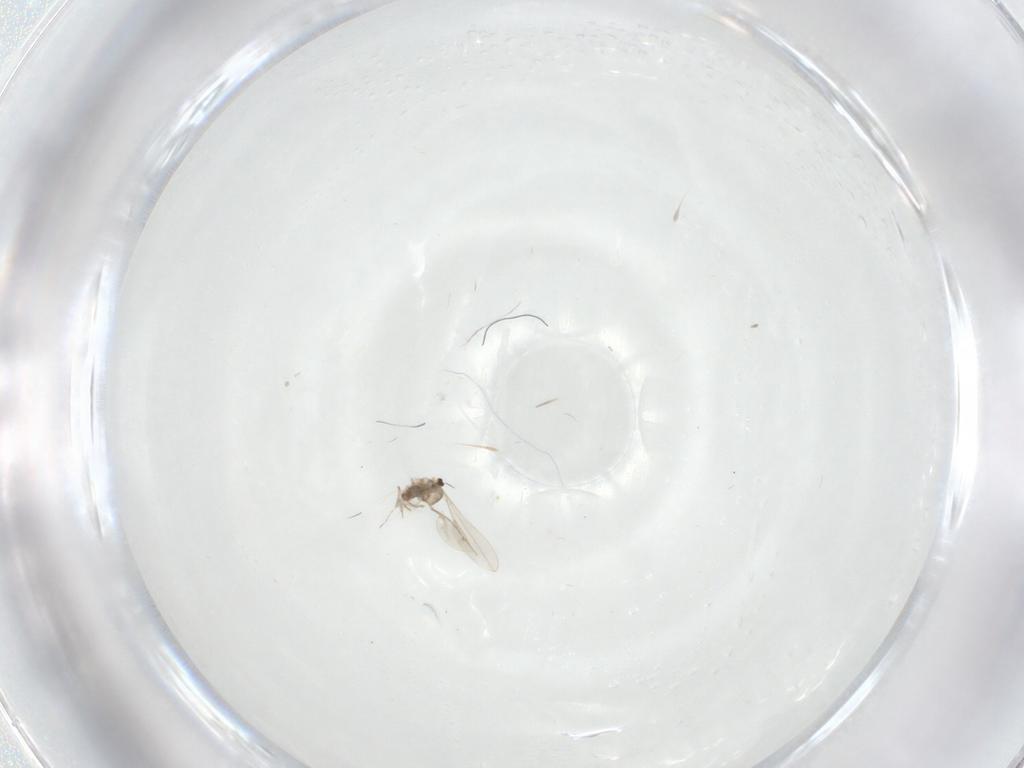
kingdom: Animalia
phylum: Arthropoda
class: Insecta
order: Diptera
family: Cecidomyiidae
